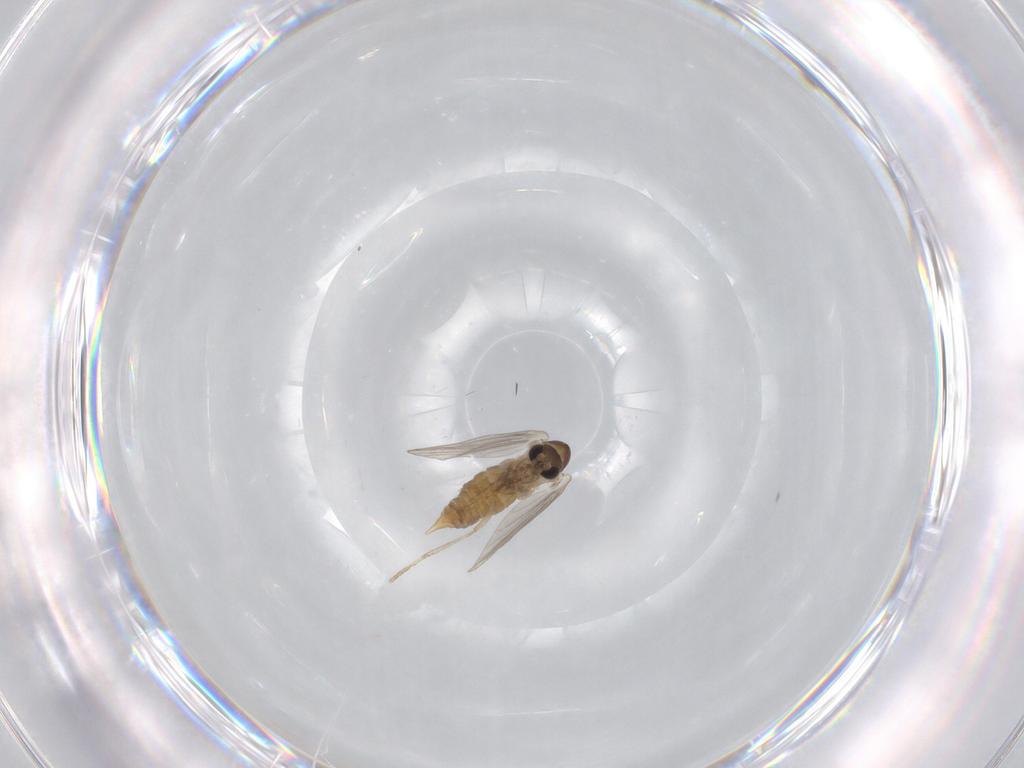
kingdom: Animalia
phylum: Arthropoda
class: Insecta
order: Diptera
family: Psychodidae
